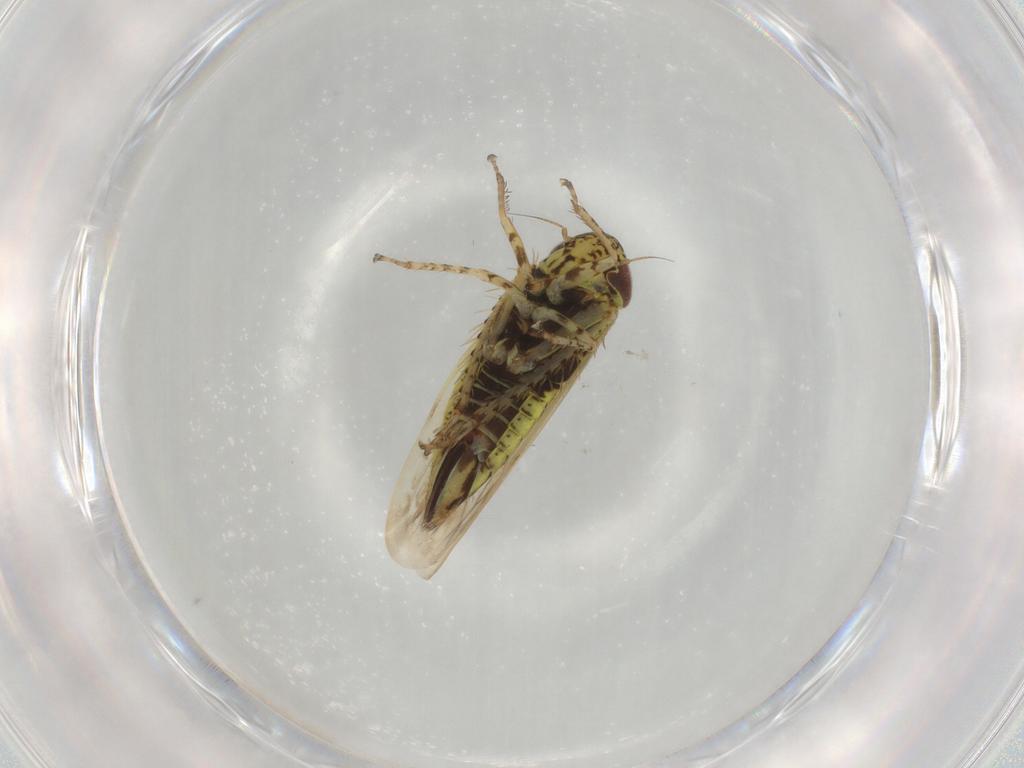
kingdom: Animalia
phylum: Arthropoda
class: Insecta
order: Hemiptera
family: Cicadellidae
